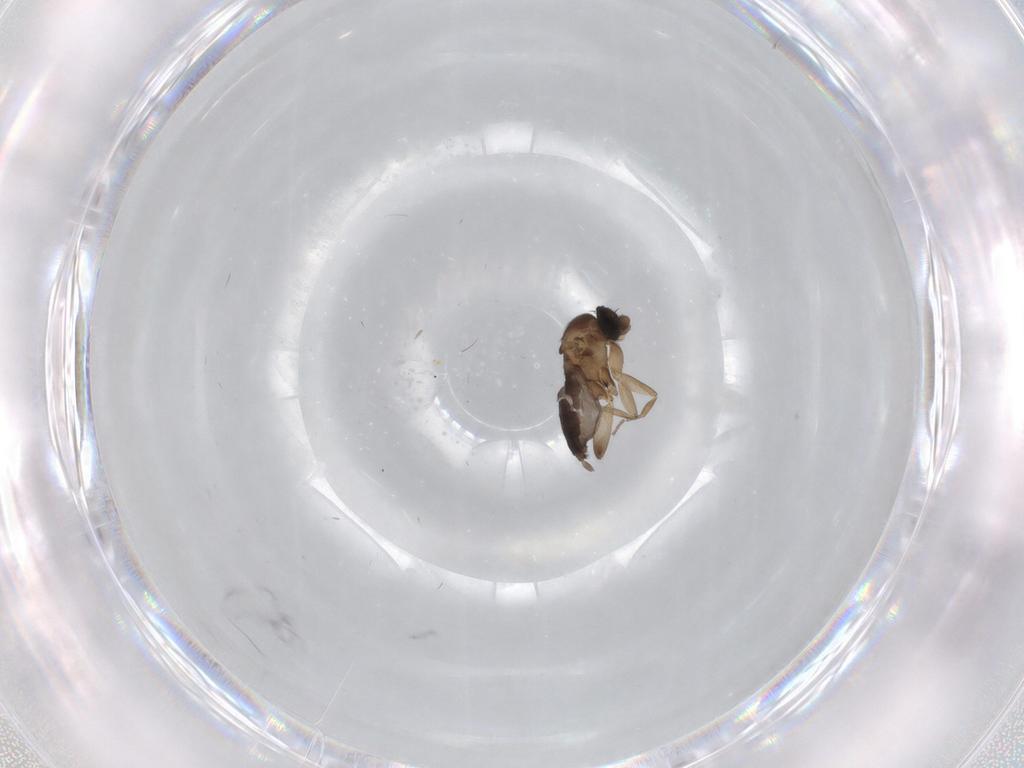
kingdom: Animalia
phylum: Arthropoda
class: Insecta
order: Diptera
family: Phoridae
